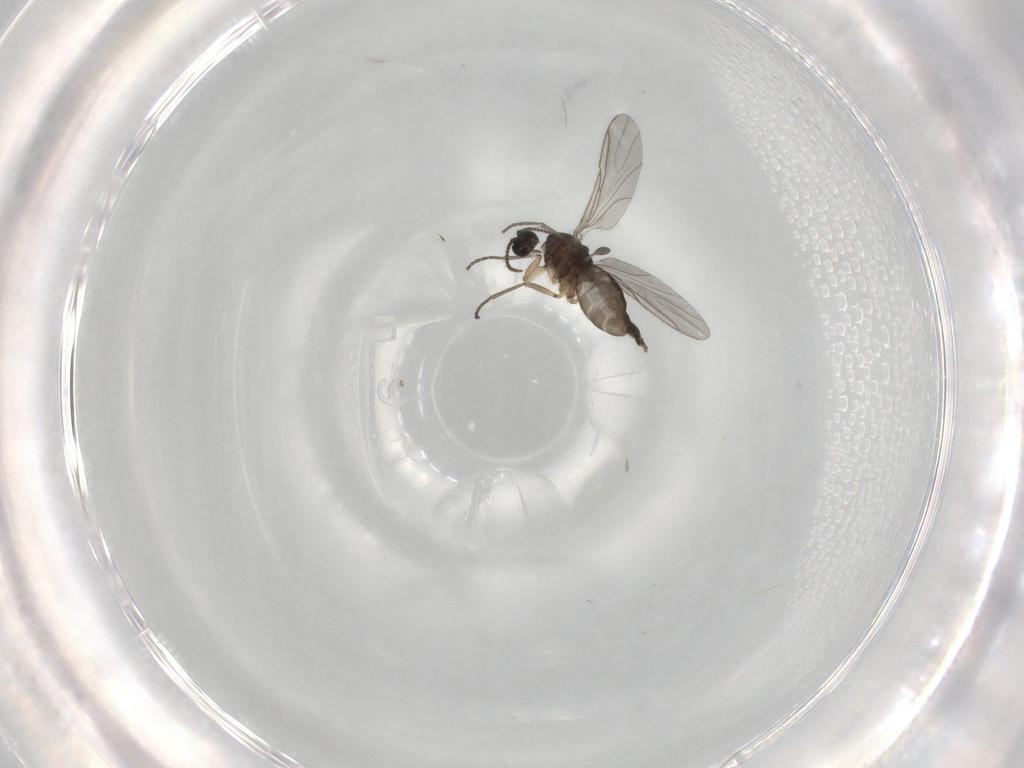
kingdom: Animalia
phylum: Arthropoda
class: Insecta
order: Diptera
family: Sciaridae
